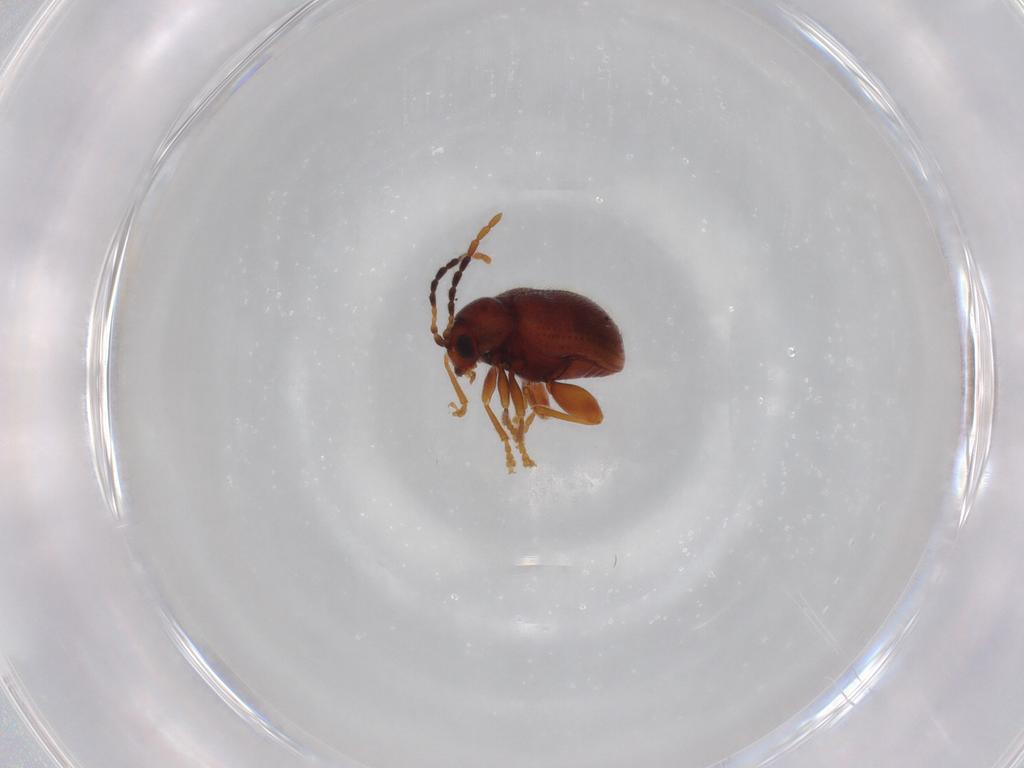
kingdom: Animalia
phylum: Arthropoda
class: Insecta
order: Coleoptera
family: Chrysomelidae
